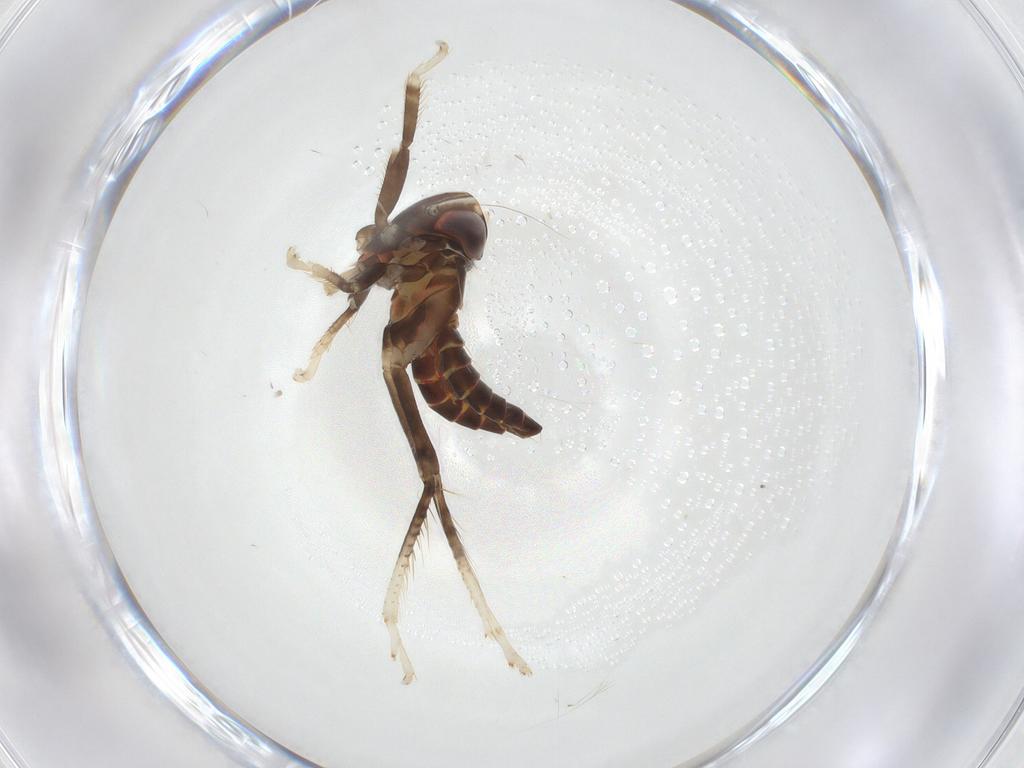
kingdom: Animalia
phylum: Arthropoda
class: Insecta
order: Hemiptera
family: Cicadellidae
